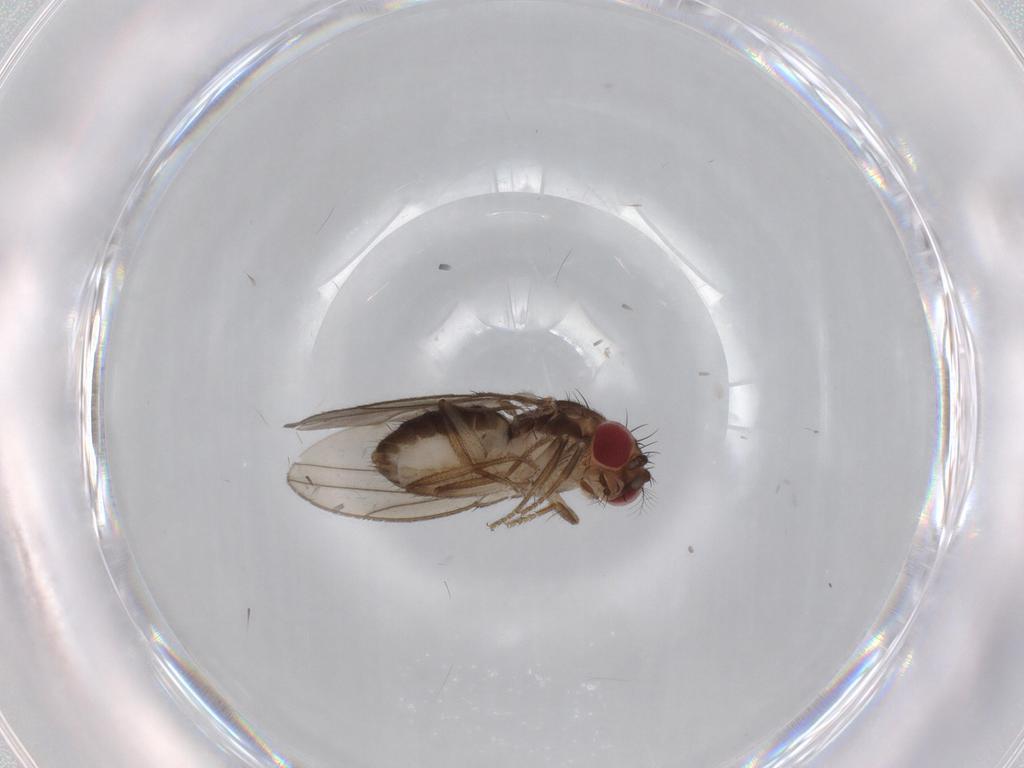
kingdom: Animalia
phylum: Arthropoda
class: Insecta
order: Diptera
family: Drosophilidae
